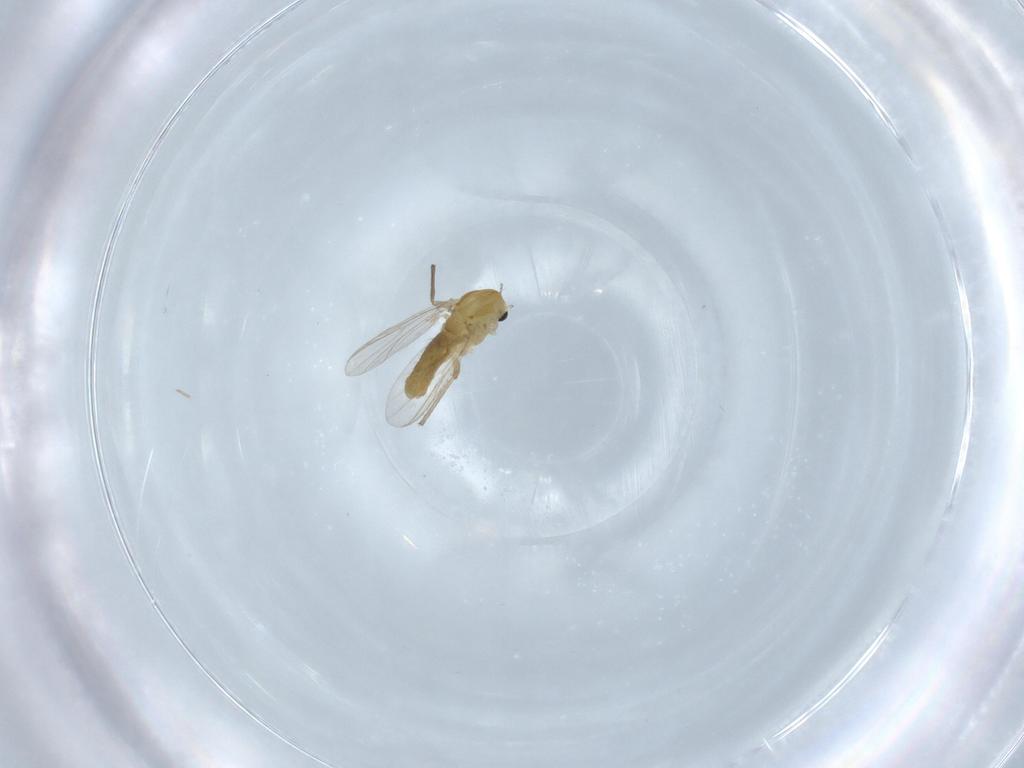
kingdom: Animalia
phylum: Arthropoda
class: Insecta
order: Diptera
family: Chironomidae
